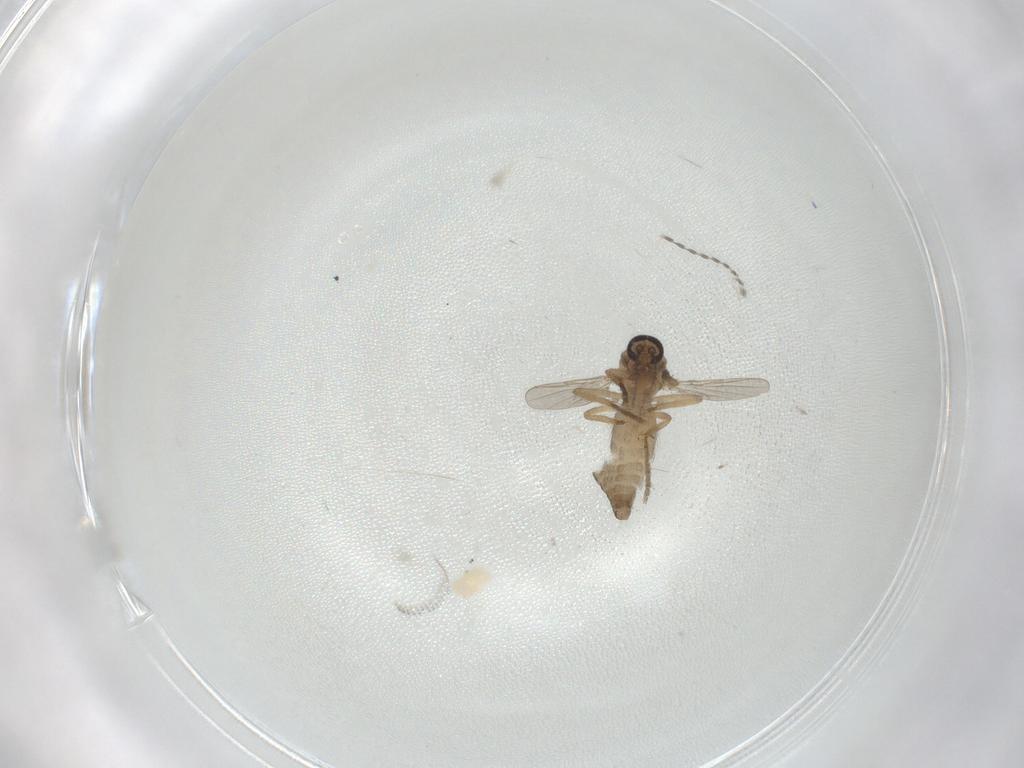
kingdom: Animalia
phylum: Arthropoda
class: Insecta
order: Diptera
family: Ceratopogonidae
